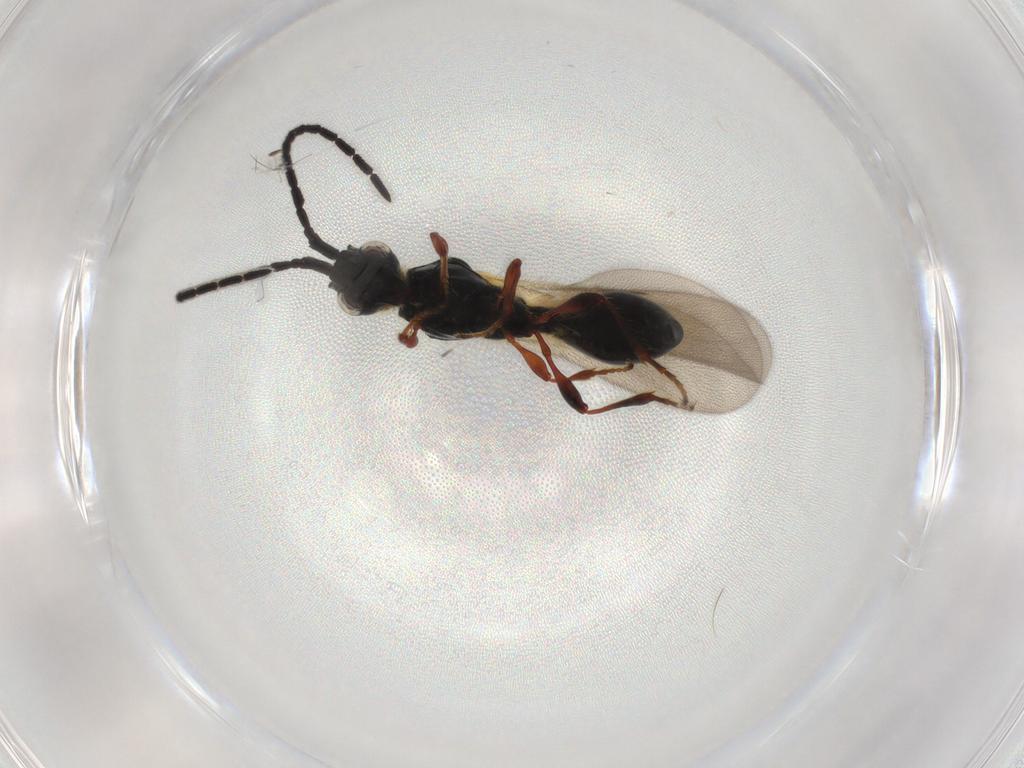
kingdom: Animalia
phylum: Arthropoda
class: Insecta
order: Hymenoptera
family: Diapriidae
